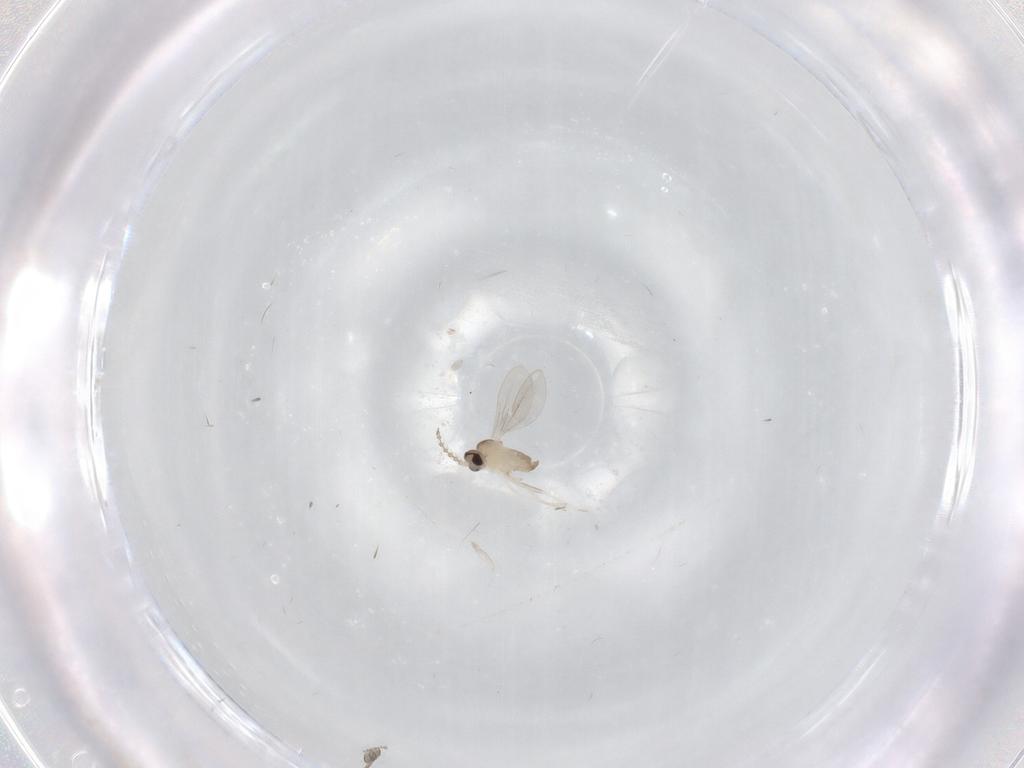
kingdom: Animalia
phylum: Arthropoda
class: Insecta
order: Diptera
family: Cecidomyiidae
